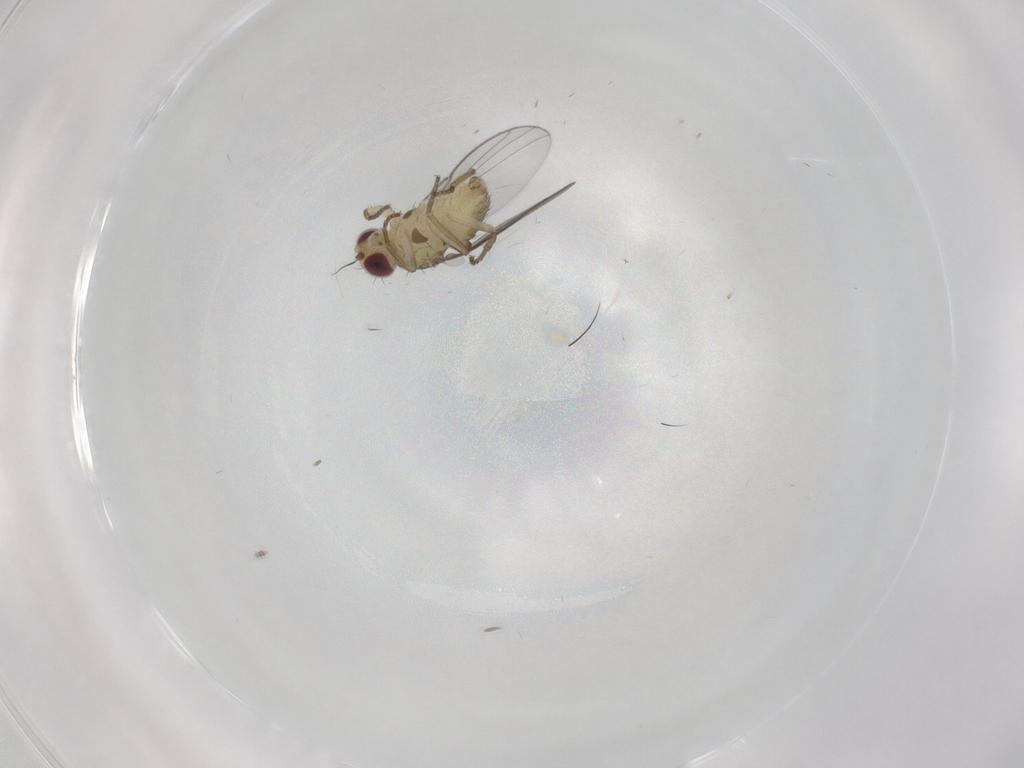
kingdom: Animalia
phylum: Arthropoda
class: Insecta
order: Diptera
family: Agromyzidae
